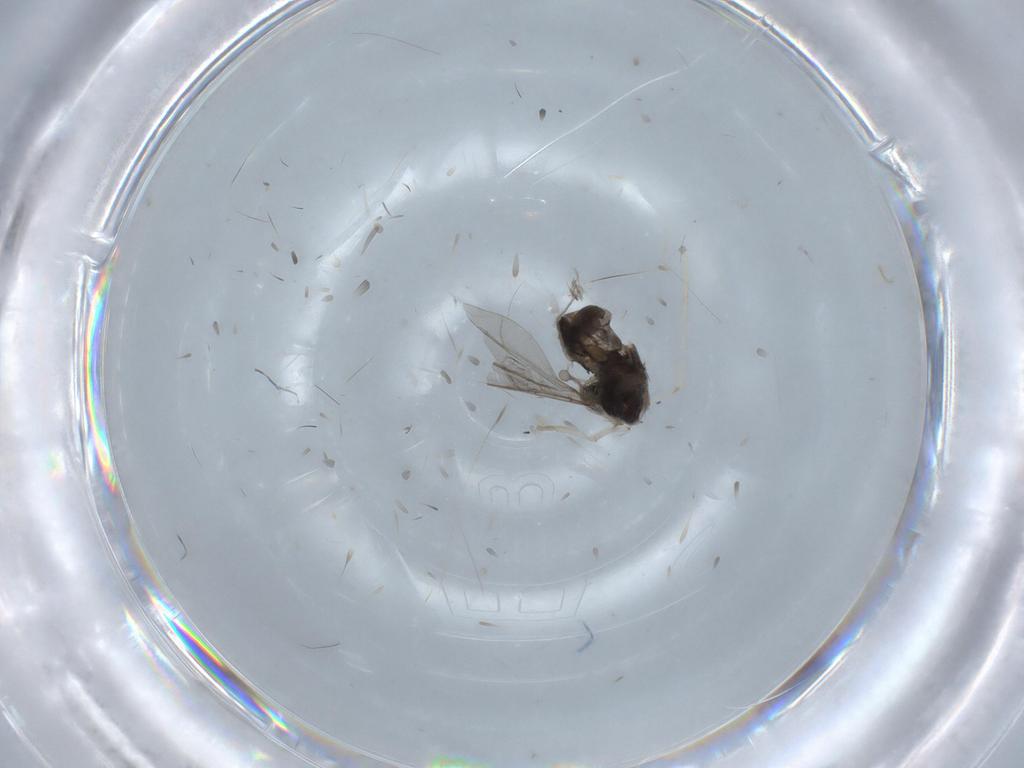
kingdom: Animalia
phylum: Arthropoda
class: Insecta
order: Diptera
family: Cecidomyiidae
